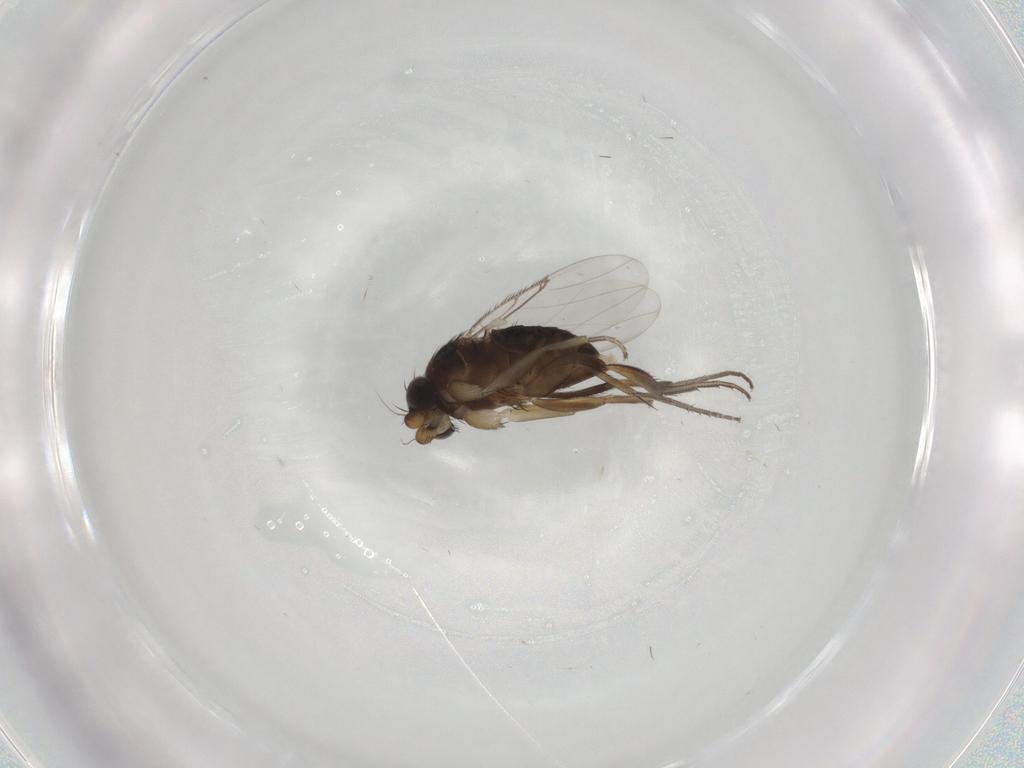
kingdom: Animalia
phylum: Arthropoda
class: Insecta
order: Diptera
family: Phoridae
